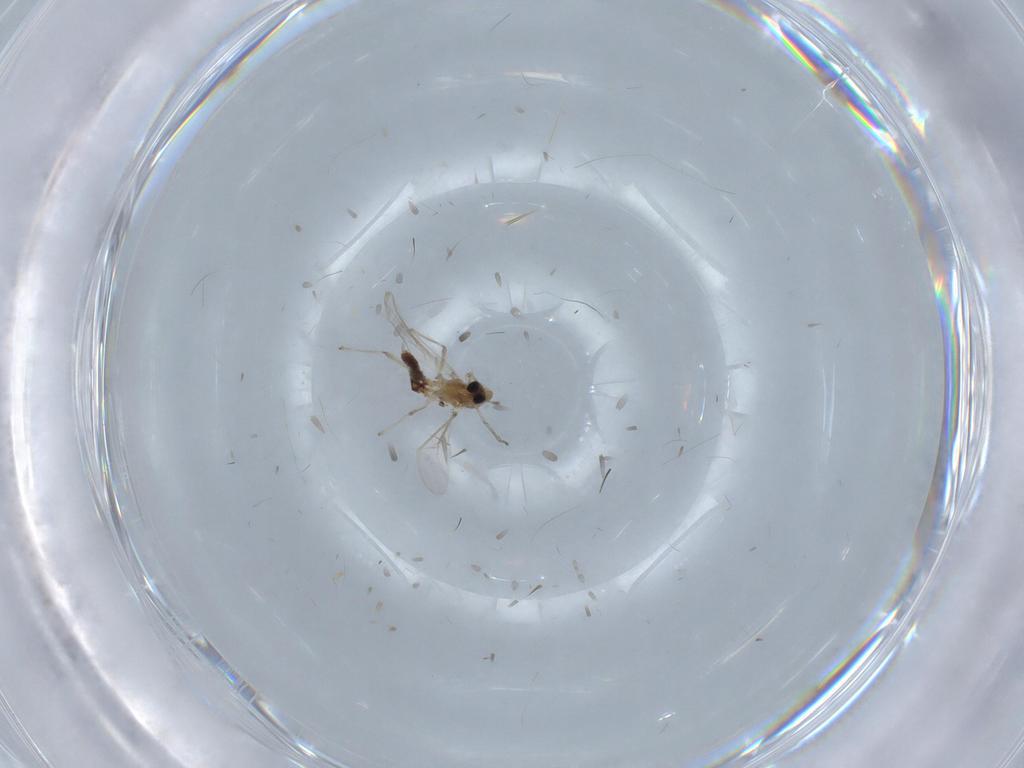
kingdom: Animalia
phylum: Arthropoda
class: Insecta
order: Diptera
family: Chironomidae
